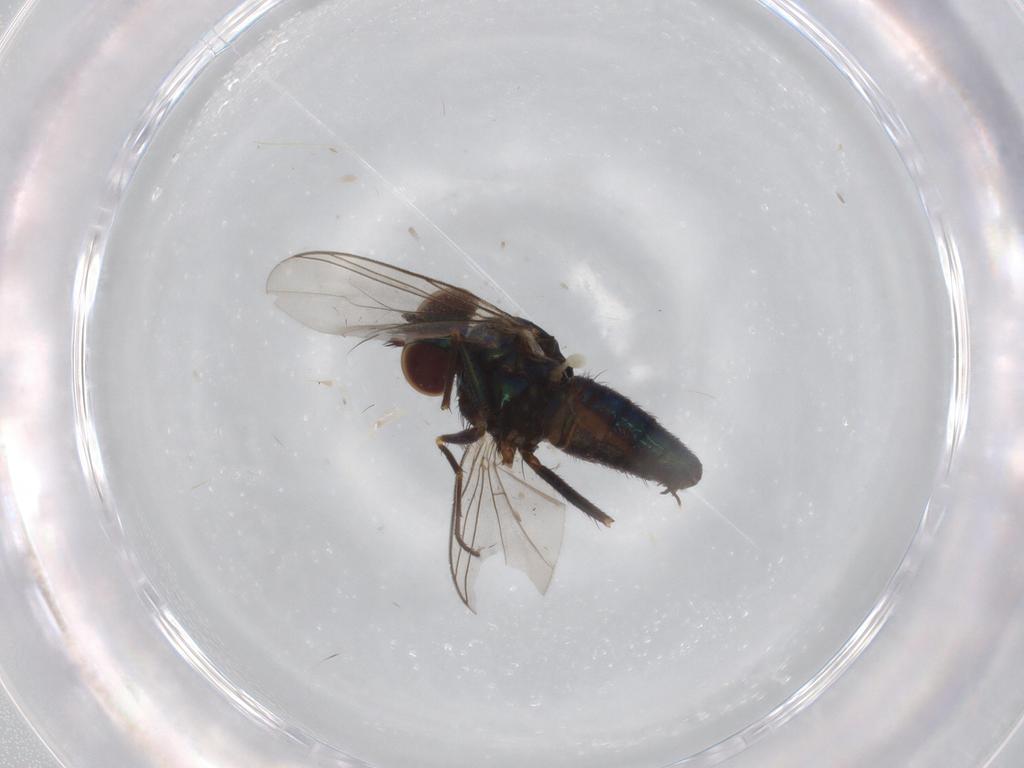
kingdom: Animalia
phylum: Arthropoda
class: Insecta
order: Diptera
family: Dolichopodidae
